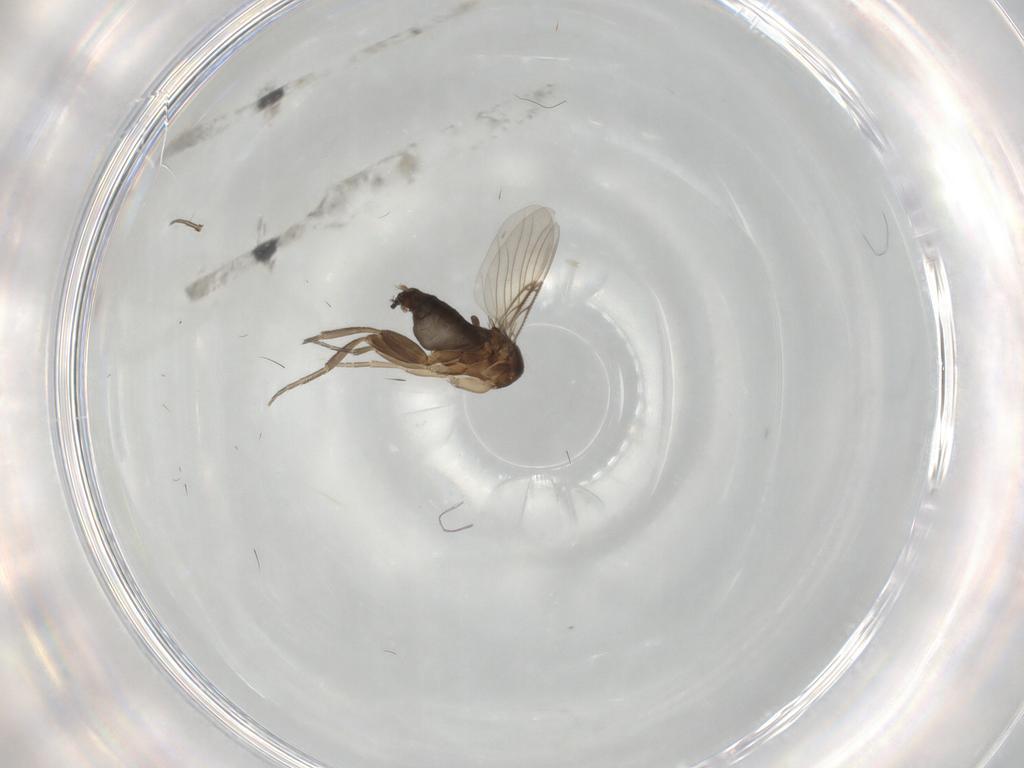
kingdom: Animalia
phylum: Arthropoda
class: Insecta
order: Diptera
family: Phoridae
